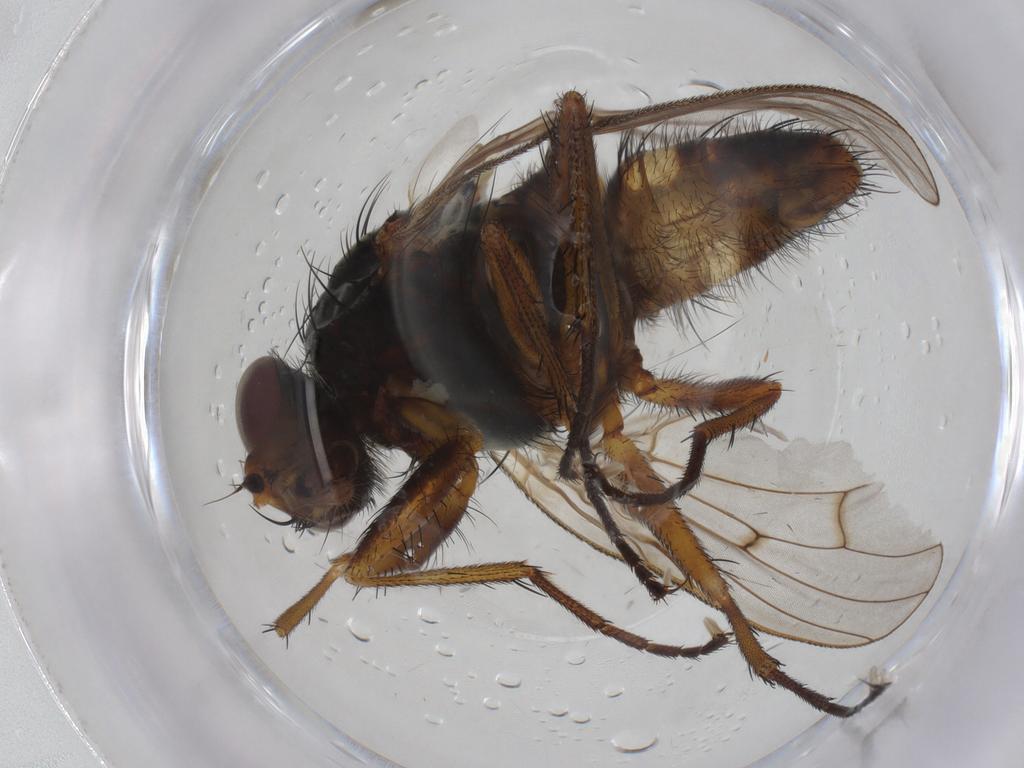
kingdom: Animalia
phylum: Arthropoda
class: Insecta
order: Diptera
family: Anthomyiidae
